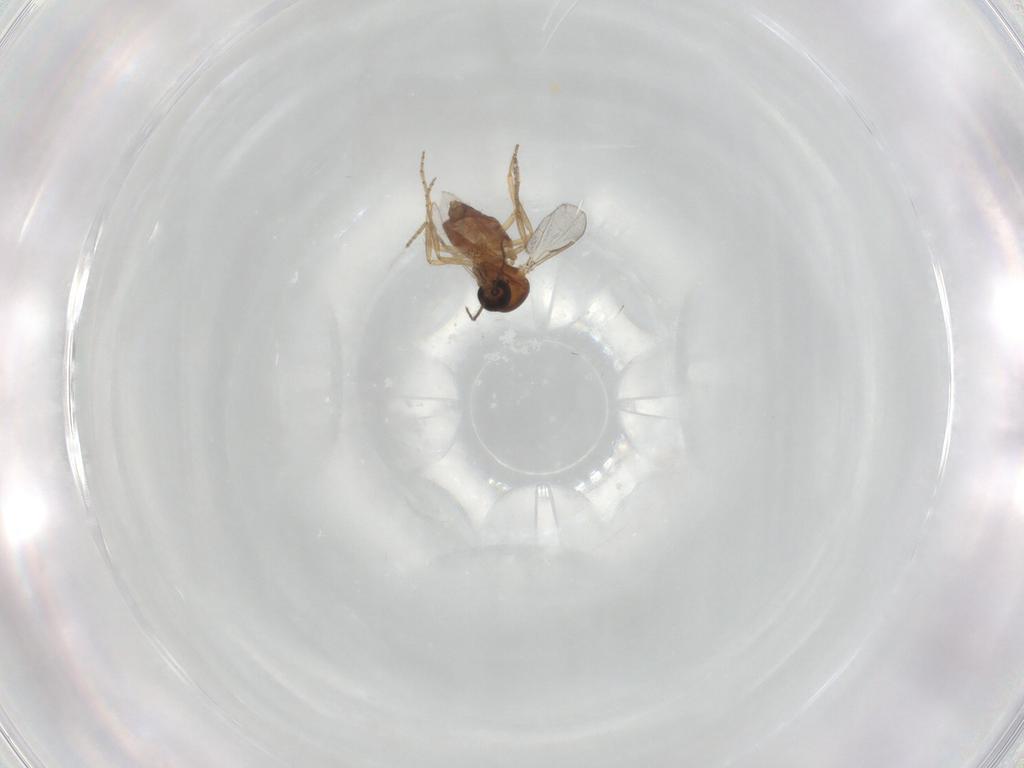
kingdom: Animalia
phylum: Arthropoda
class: Insecta
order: Diptera
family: Ceratopogonidae
